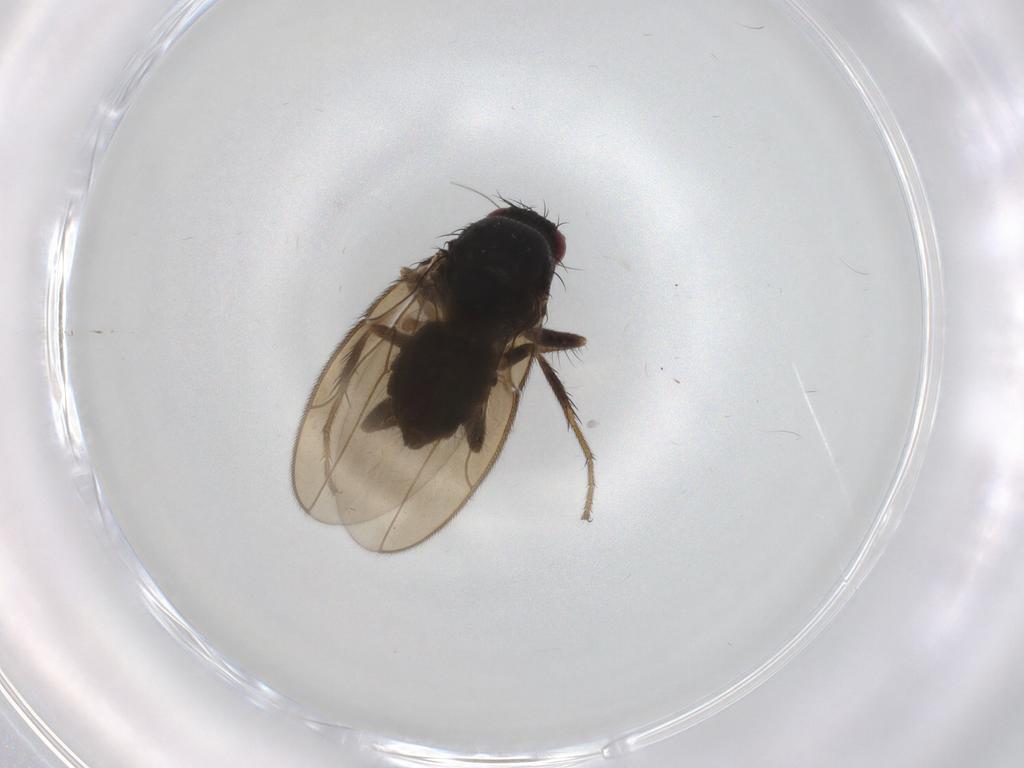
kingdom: Animalia
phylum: Arthropoda
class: Insecta
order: Diptera
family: Sphaeroceridae
